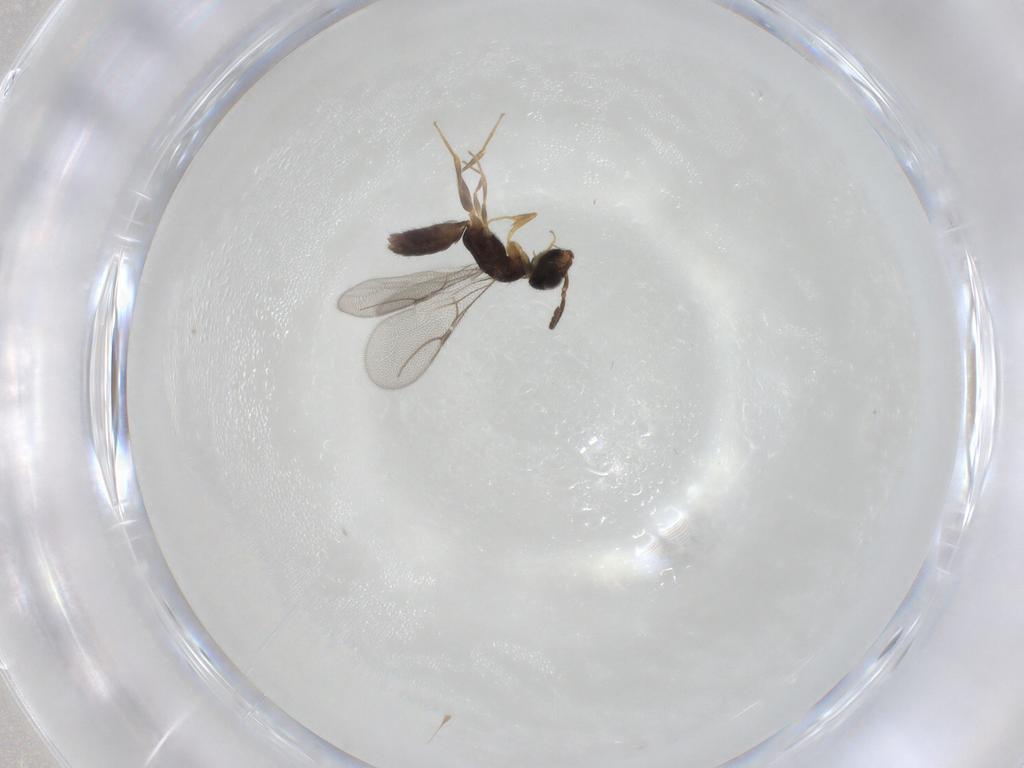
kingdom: Animalia
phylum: Arthropoda
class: Insecta
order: Hymenoptera
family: Bethylidae
